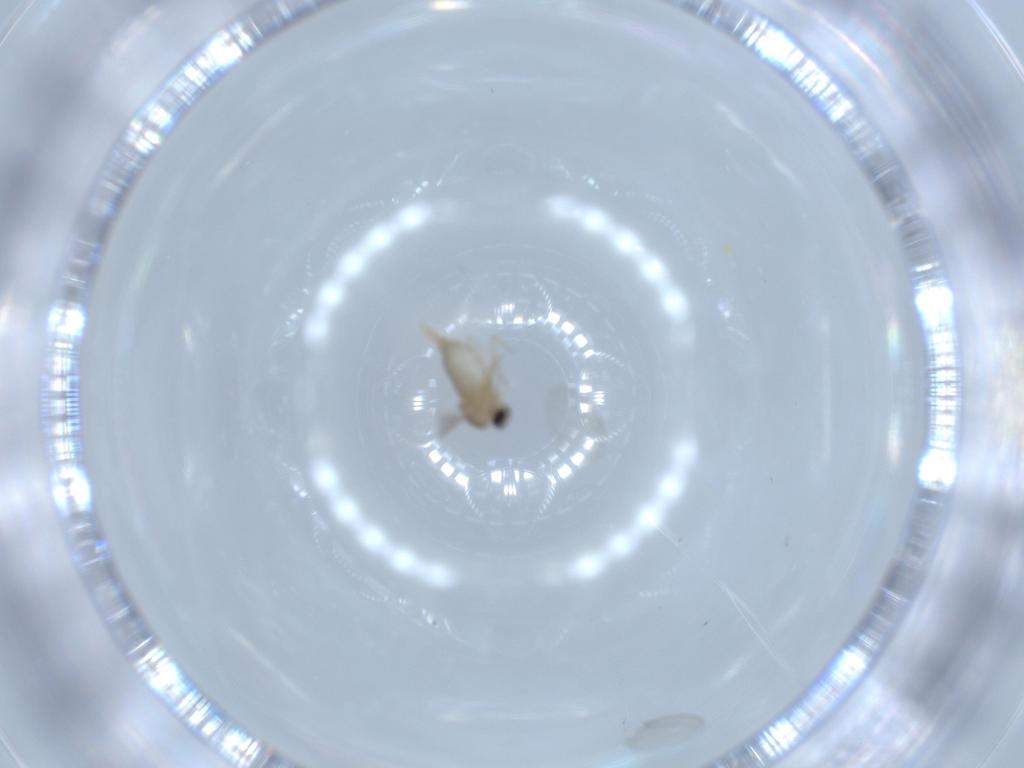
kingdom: Animalia
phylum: Arthropoda
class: Insecta
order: Diptera
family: Cecidomyiidae
